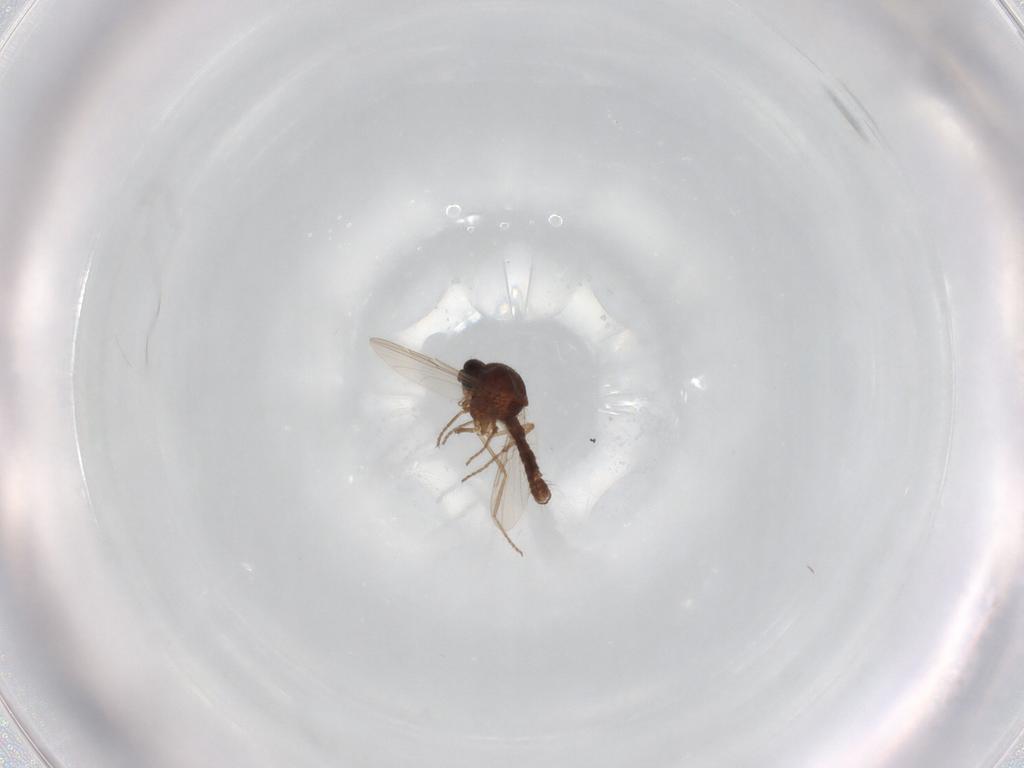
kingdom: Animalia
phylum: Arthropoda
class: Insecta
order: Diptera
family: Ceratopogonidae
